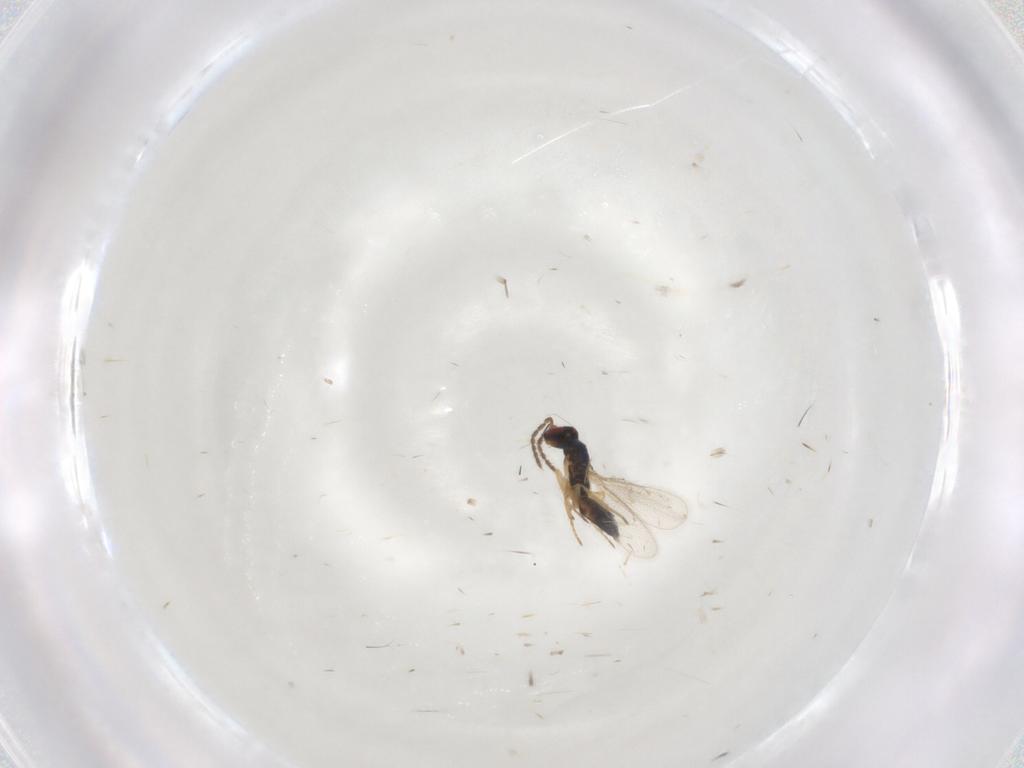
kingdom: Animalia
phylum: Arthropoda
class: Insecta
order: Hymenoptera
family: Eulophidae
